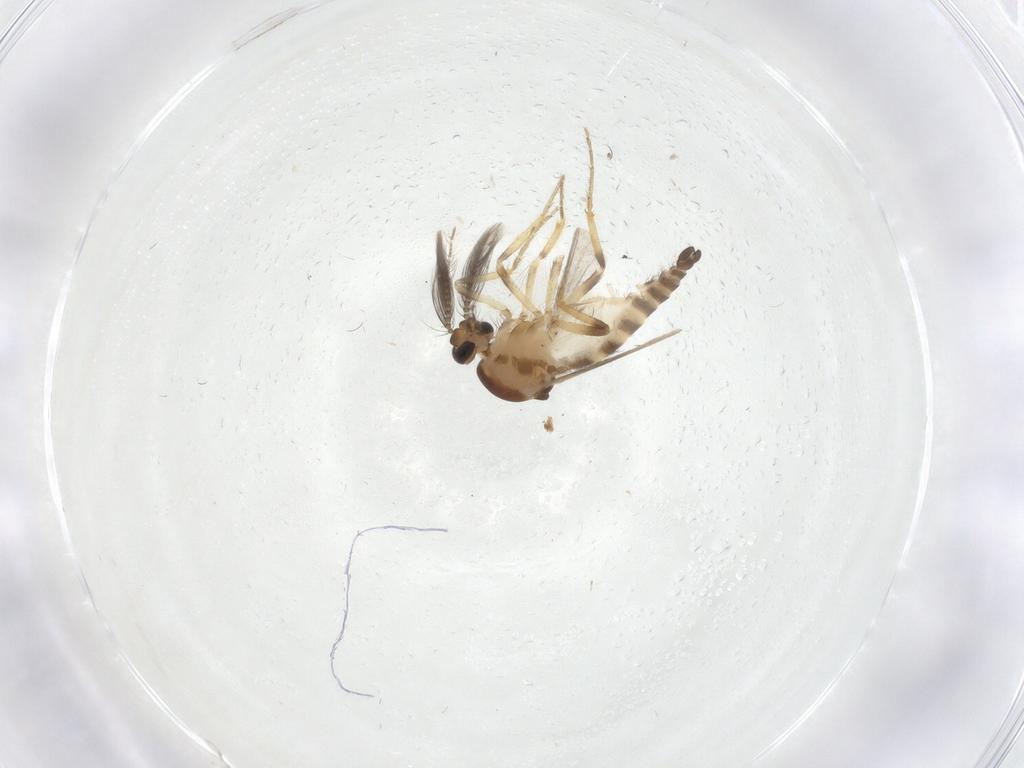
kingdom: Animalia
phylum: Arthropoda
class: Insecta
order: Diptera
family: Ceratopogonidae
